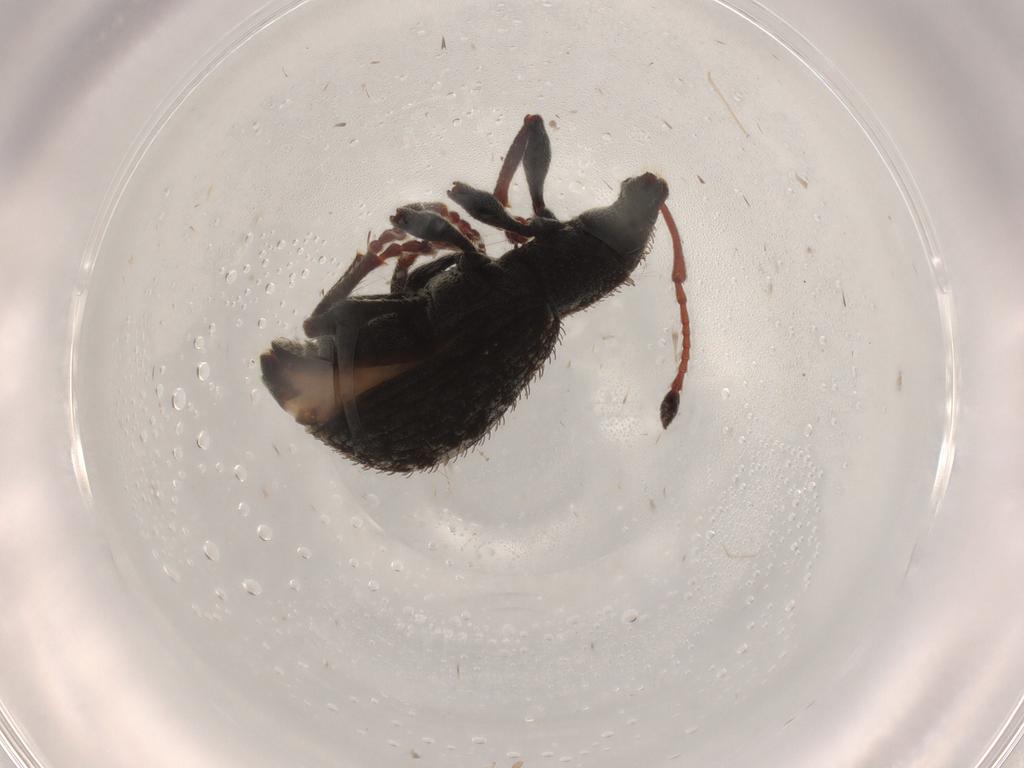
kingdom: Animalia
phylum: Arthropoda
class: Insecta
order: Coleoptera
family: Curculionidae
